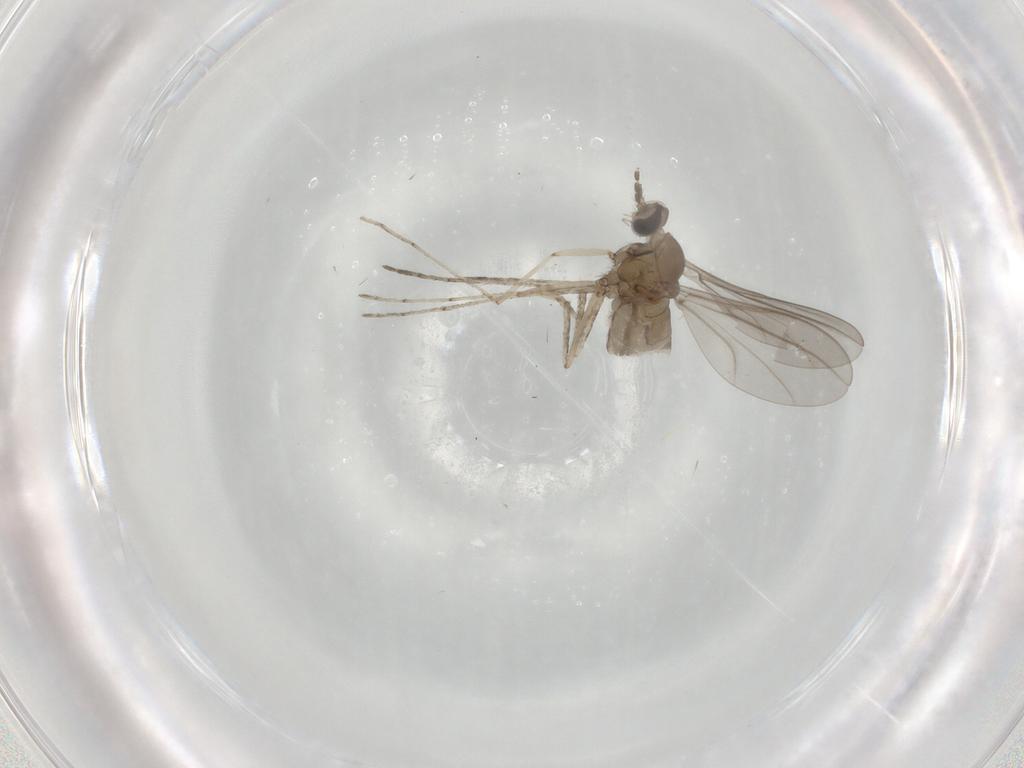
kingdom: Animalia
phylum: Arthropoda
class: Insecta
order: Diptera
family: Cecidomyiidae
